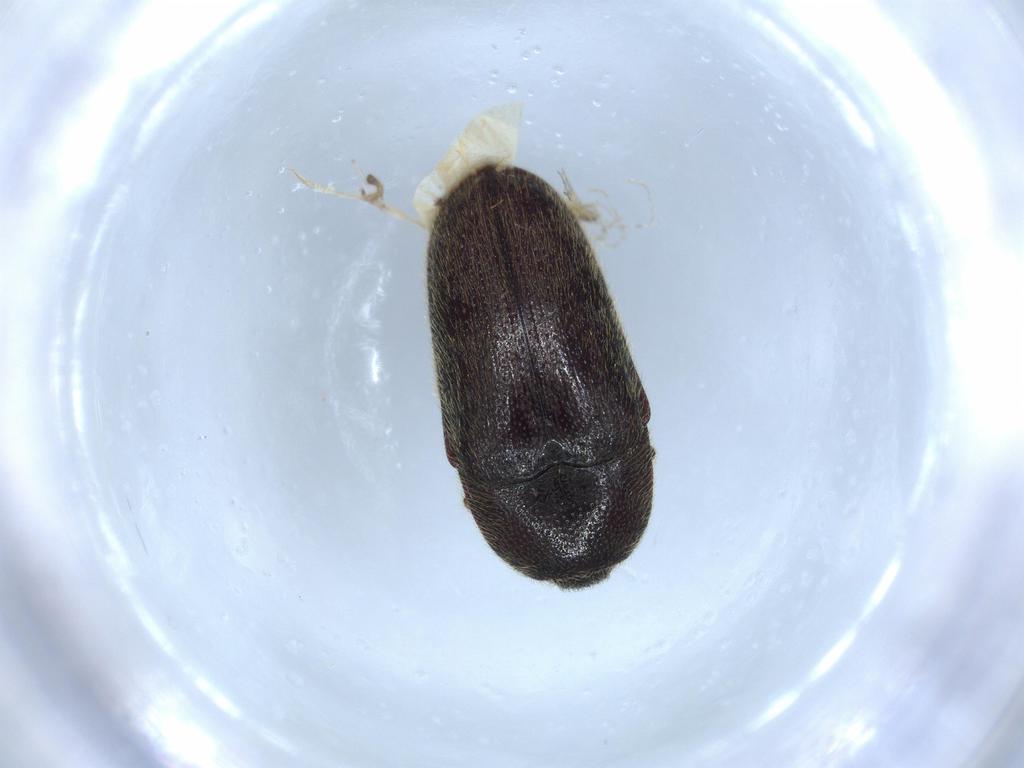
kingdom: Animalia
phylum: Arthropoda
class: Insecta
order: Coleoptera
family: Throscidae
